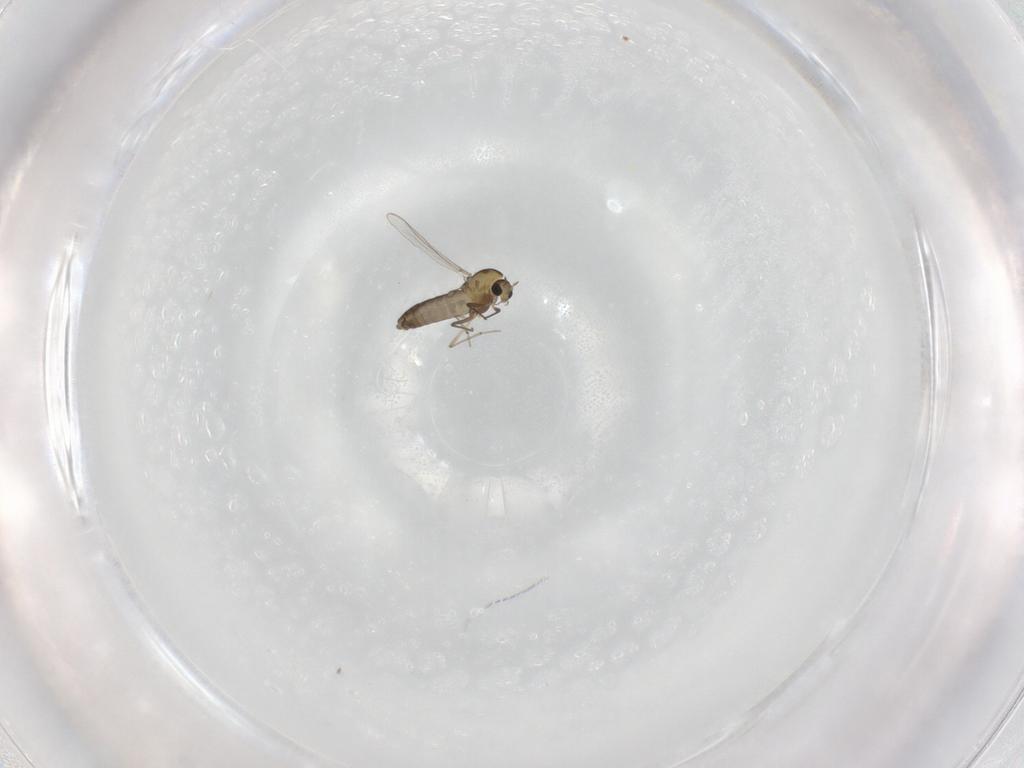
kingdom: Animalia
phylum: Arthropoda
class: Insecta
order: Diptera
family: Chironomidae
